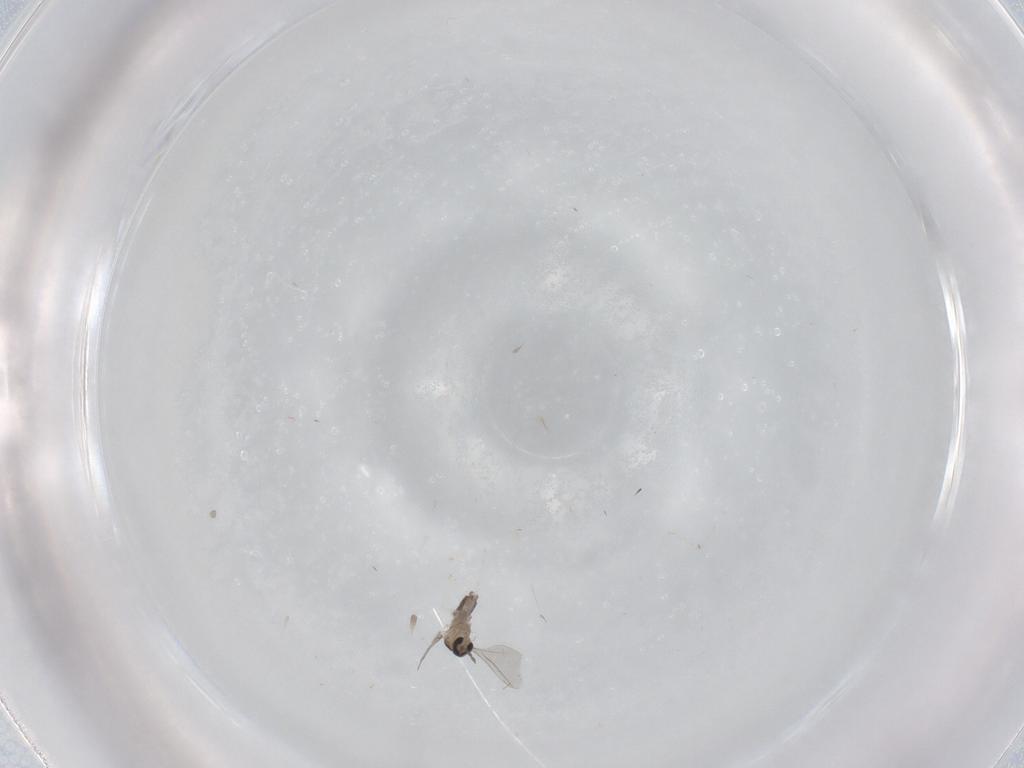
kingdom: Animalia
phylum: Arthropoda
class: Insecta
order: Diptera
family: Cecidomyiidae
